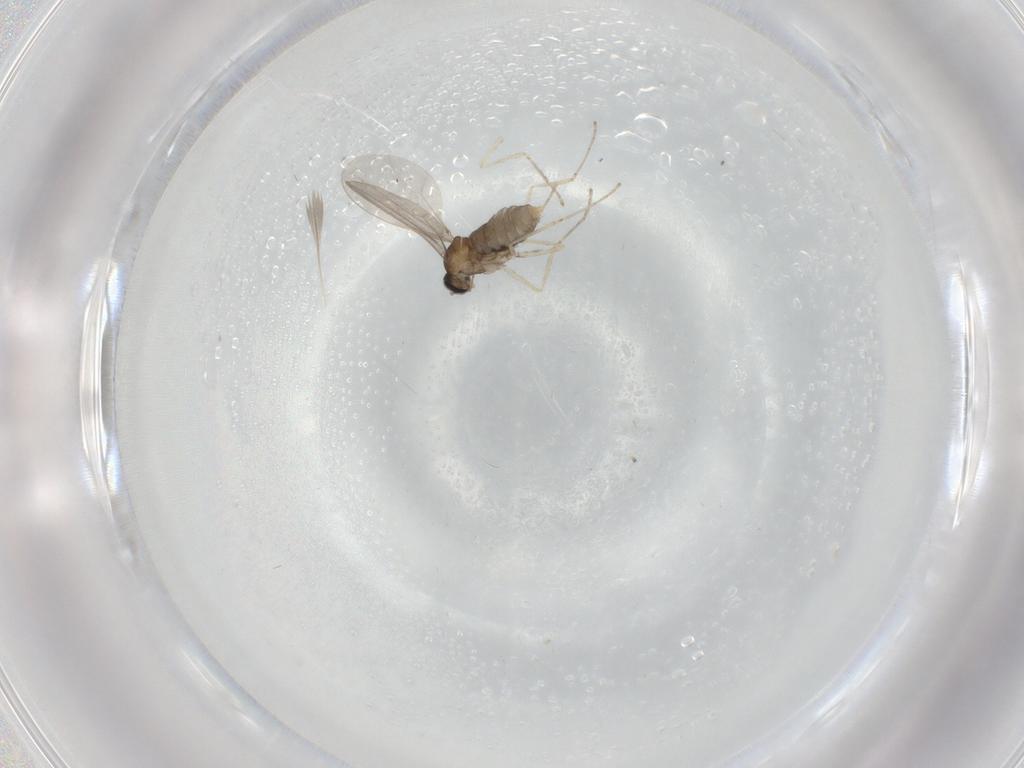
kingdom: Animalia
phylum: Arthropoda
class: Insecta
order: Diptera
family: Cecidomyiidae
